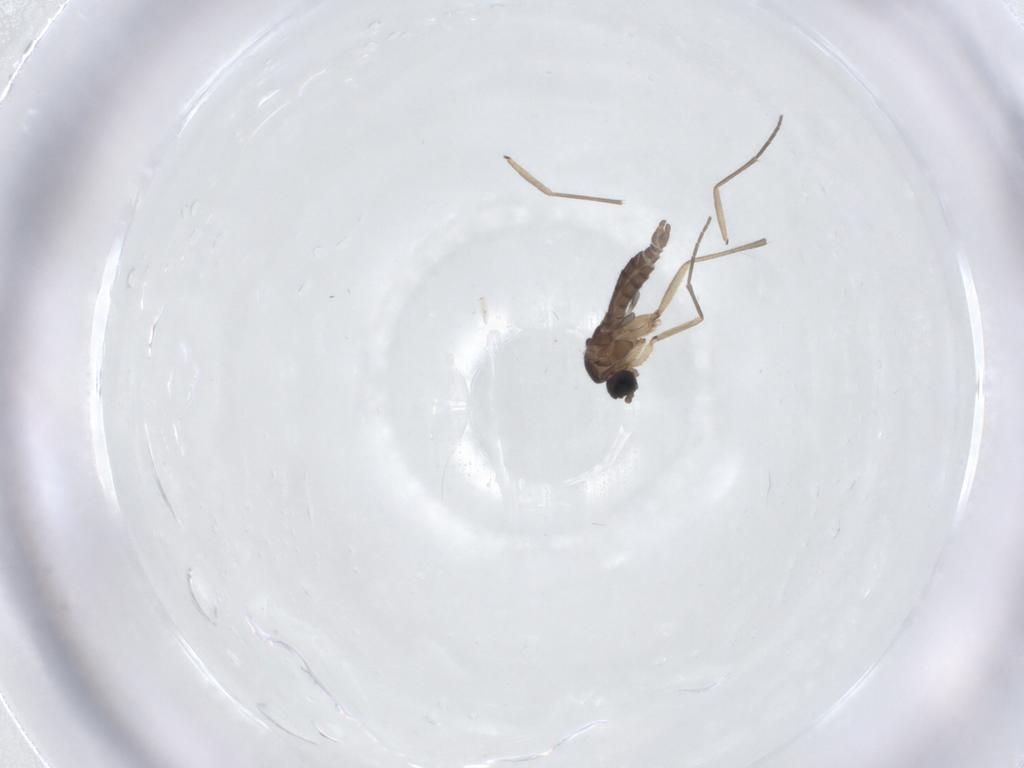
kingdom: Animalia
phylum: Arthropoda
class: Insecta
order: Diptera
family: Sciaridae
